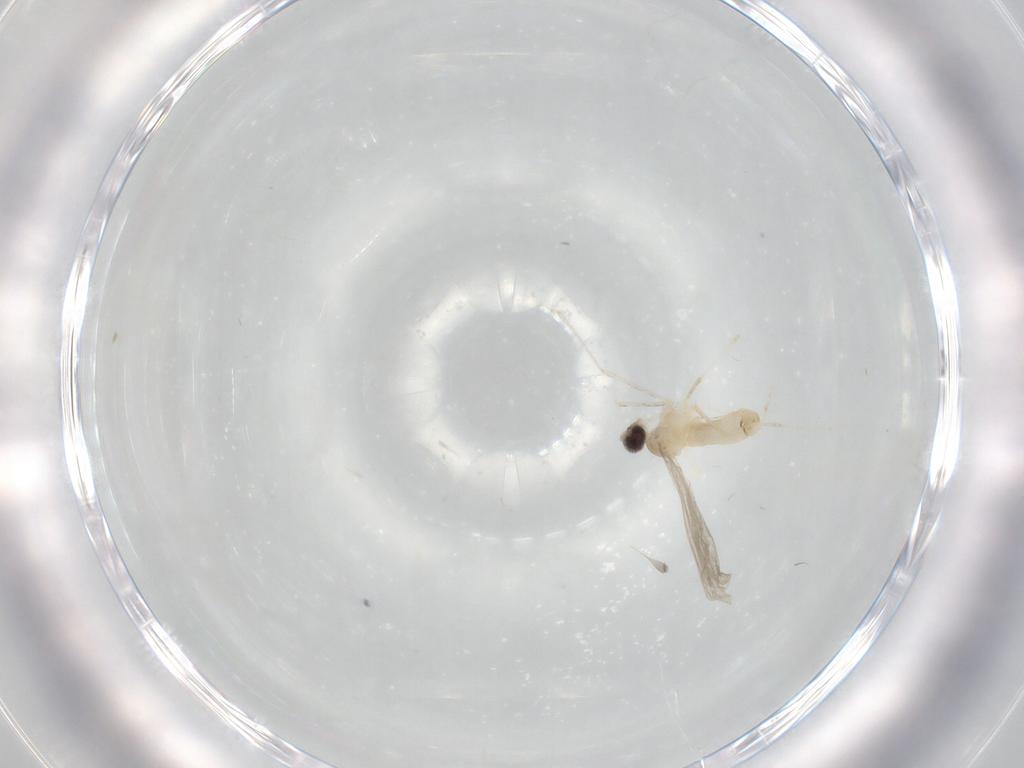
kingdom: Animalia
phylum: Arthropoda
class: Insecta
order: Diptera
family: Cecidomyiidae
